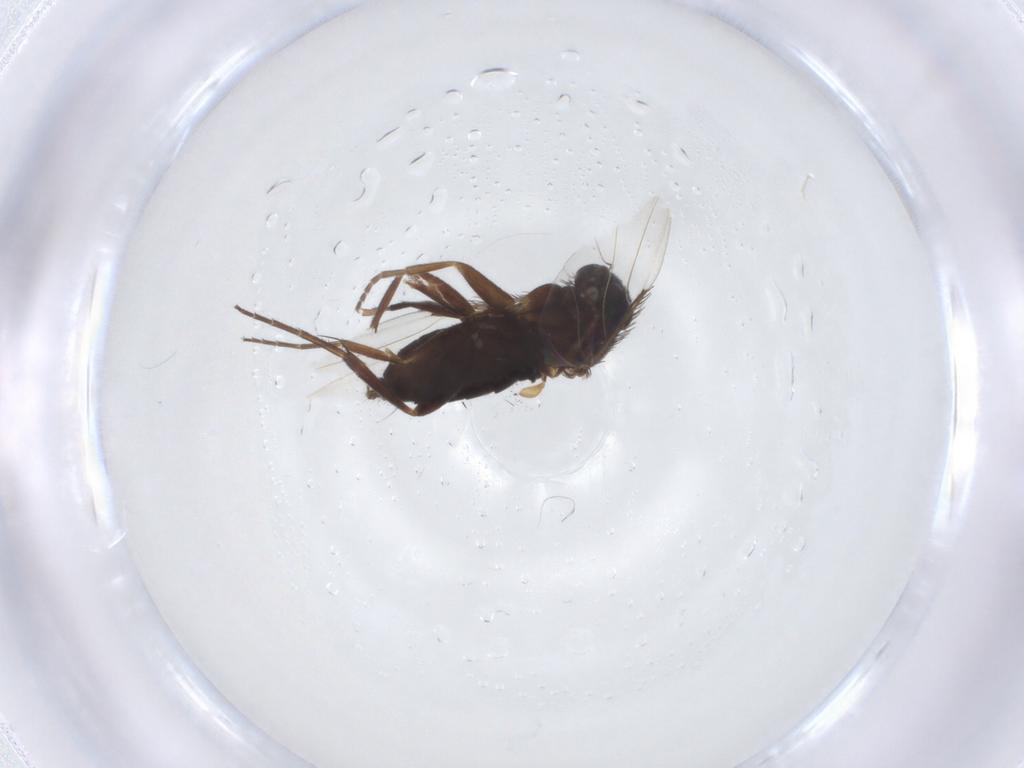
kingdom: Animalia
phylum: Arthropoda
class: Insecta
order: Diptera
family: Phoridae
